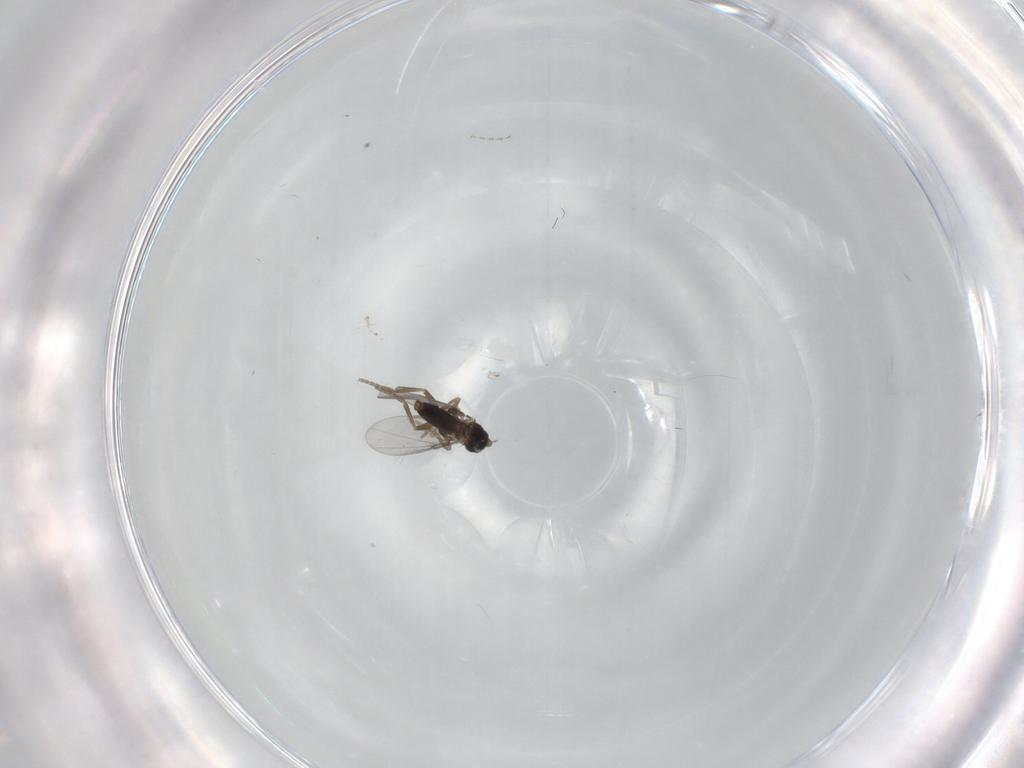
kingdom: Animalia
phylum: Arthropoda
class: Insecta
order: Diptera
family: Phoridae
